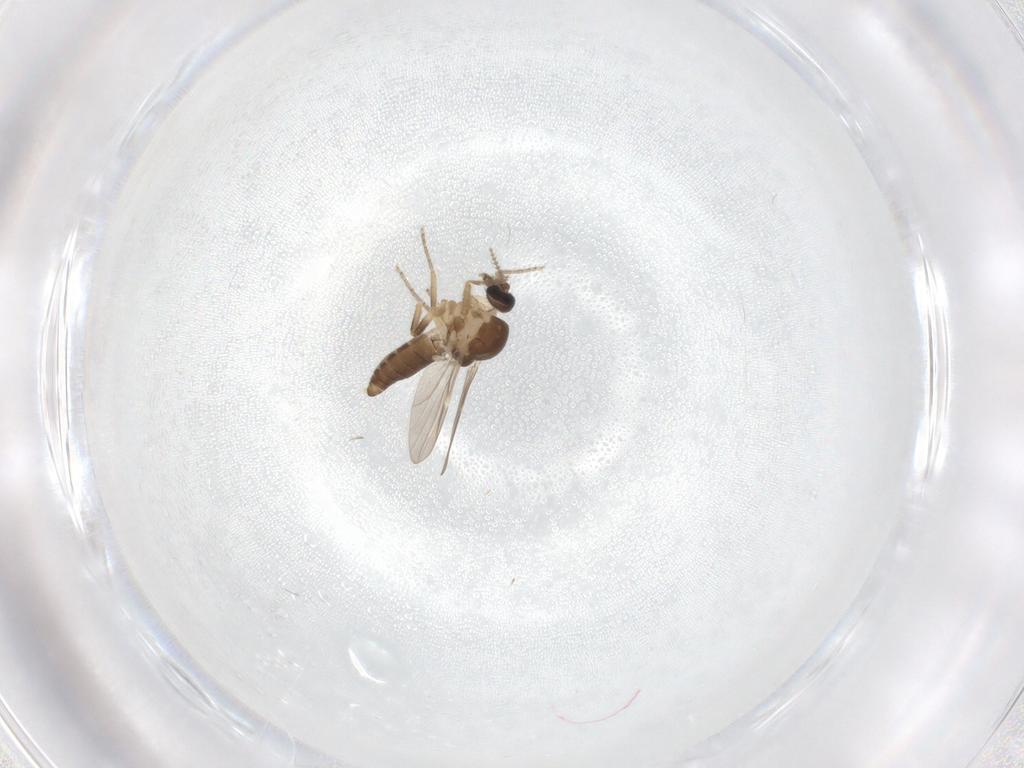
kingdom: Animalia
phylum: Arthropoda
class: Insecta
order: Diptera
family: Ceratopogonidae
